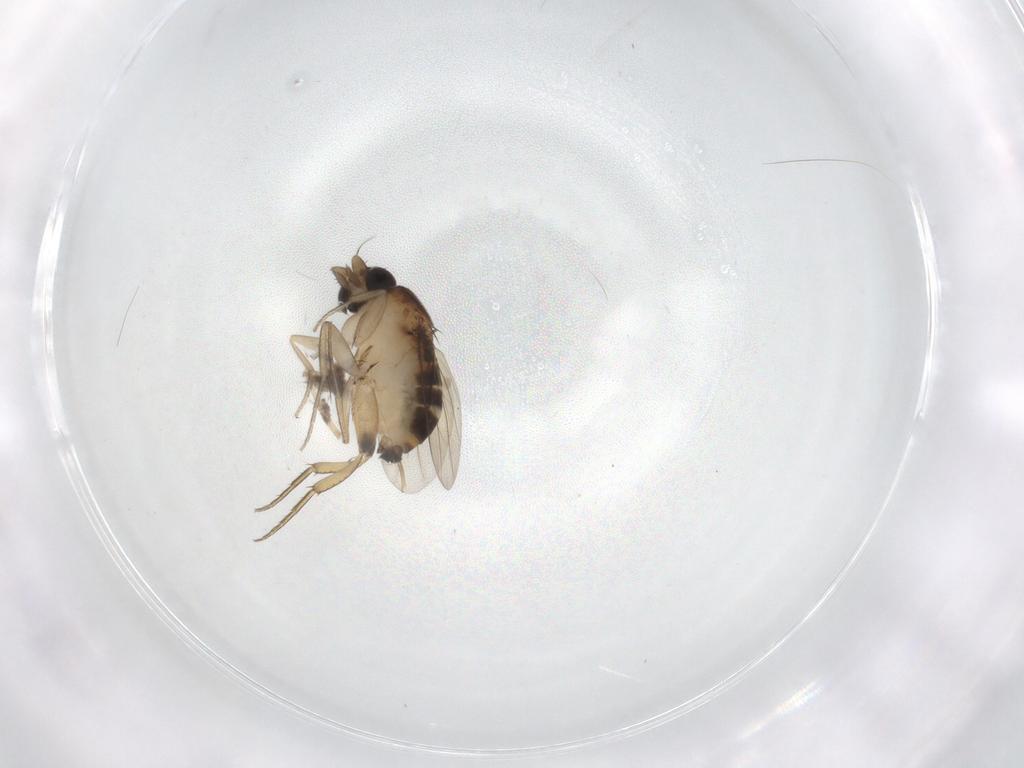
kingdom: Animalia
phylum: Arthropoda
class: Insecta
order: Diptera
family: Phoridae
